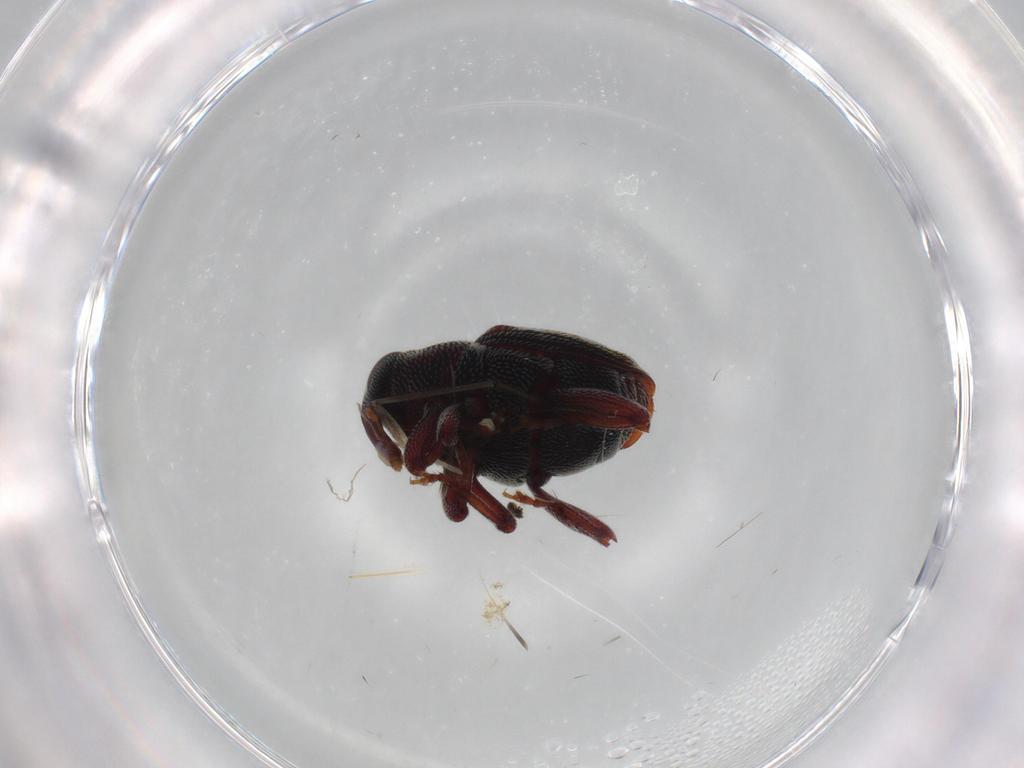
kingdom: Animalia
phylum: Arthropoda
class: Insecta
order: Coleoptera
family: Curculionidae
